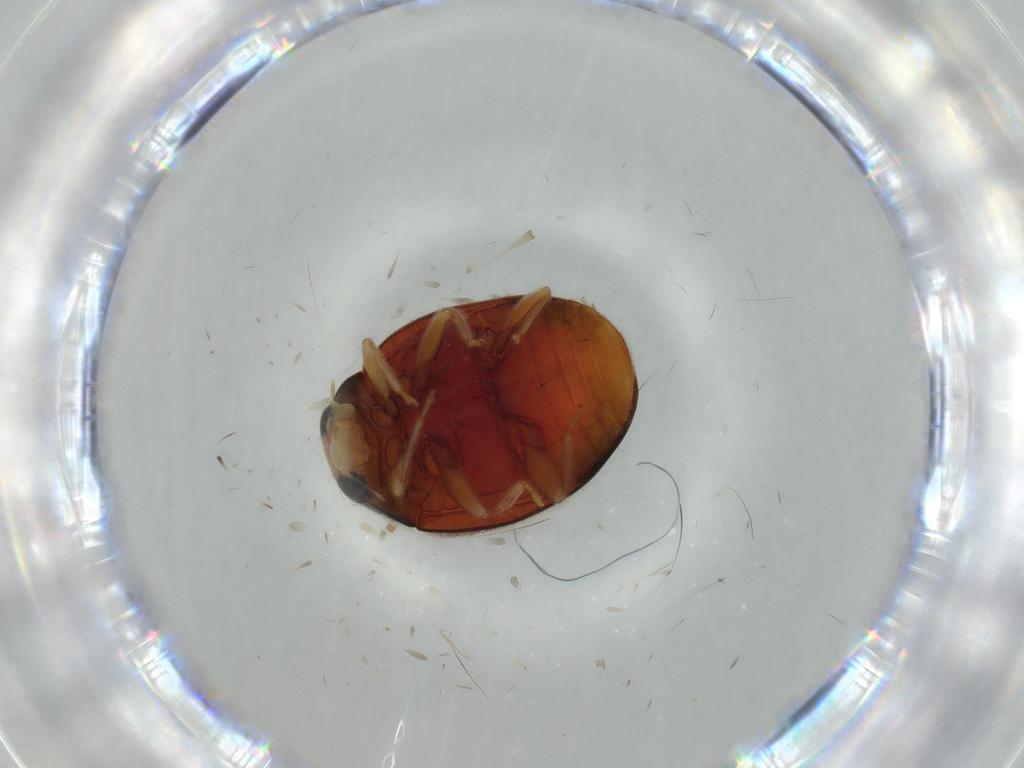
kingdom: Animalia
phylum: Arthropoda
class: Insecta
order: Coleoptera
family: Coccinellidae
